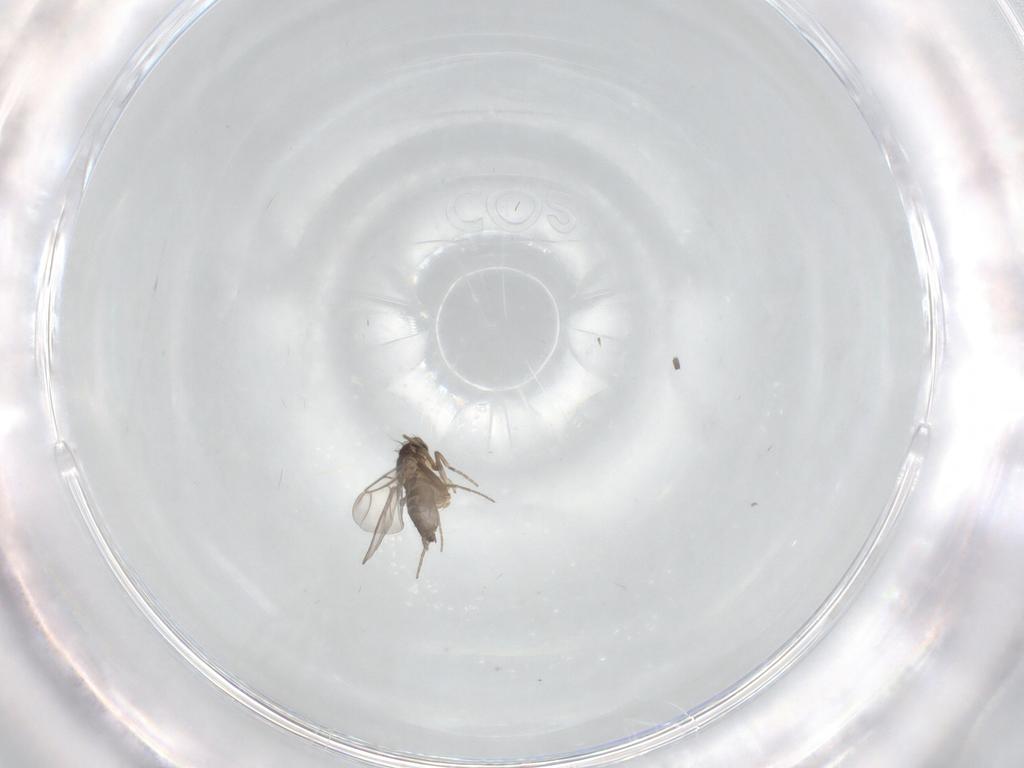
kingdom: Animalia
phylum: Arthropoda
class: Insecta
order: Diptera
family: Phoridae
